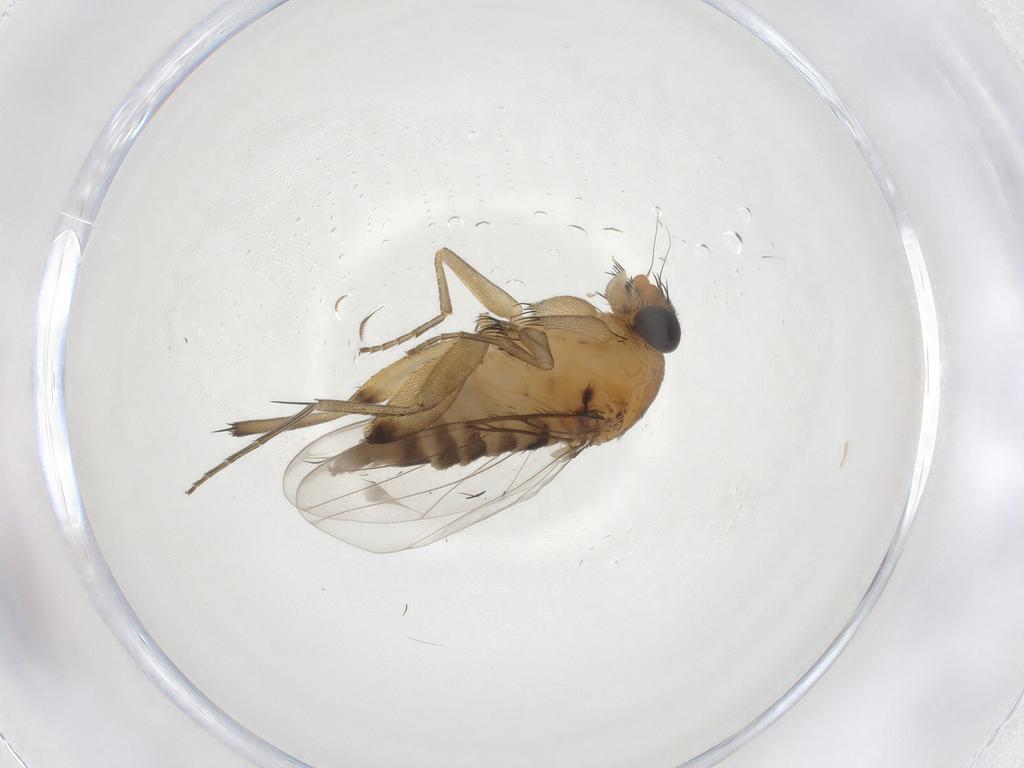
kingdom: Animalia
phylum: Arthropoda
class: Insecta
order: Diptera
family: Phoridae
